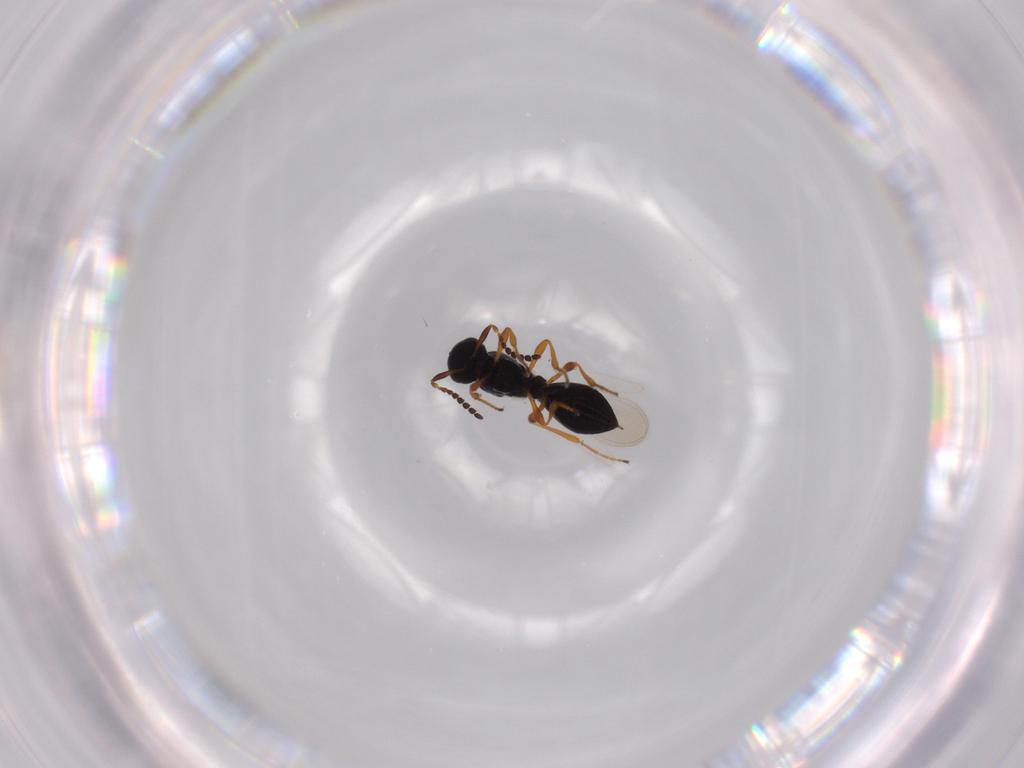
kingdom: Animalia
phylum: Arthropoda
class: Insecta
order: Hymenoptera
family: Platygastridae
